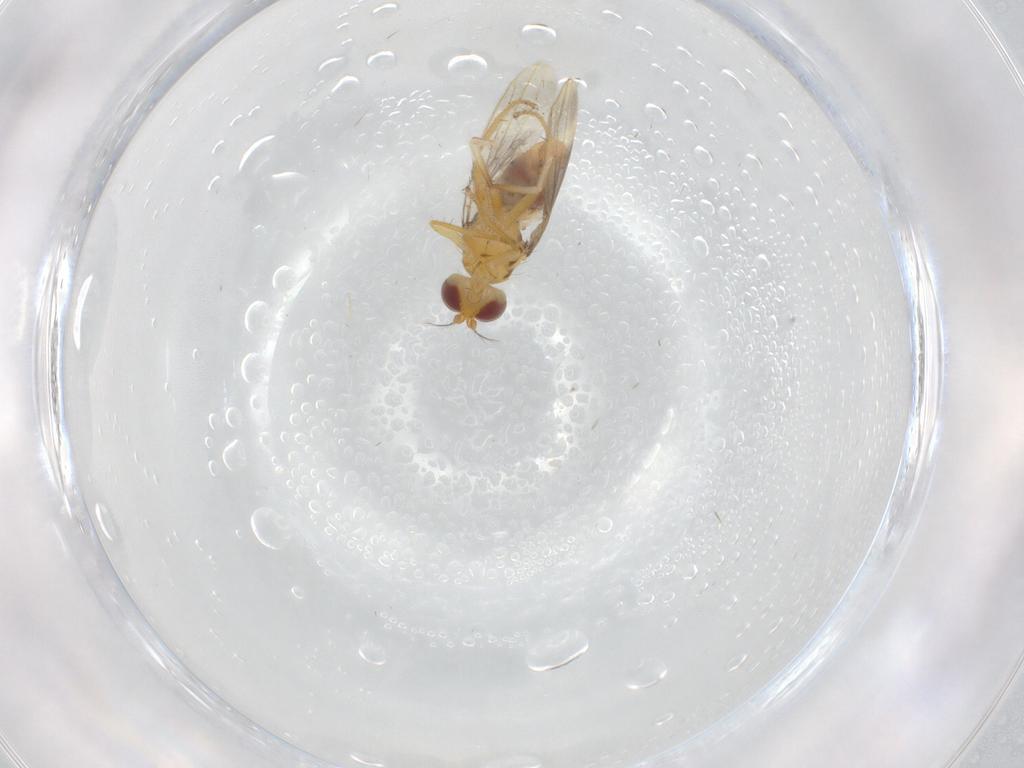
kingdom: Animalia
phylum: Arthropoda
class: Insecta
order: Diptera
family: Periscelididae
